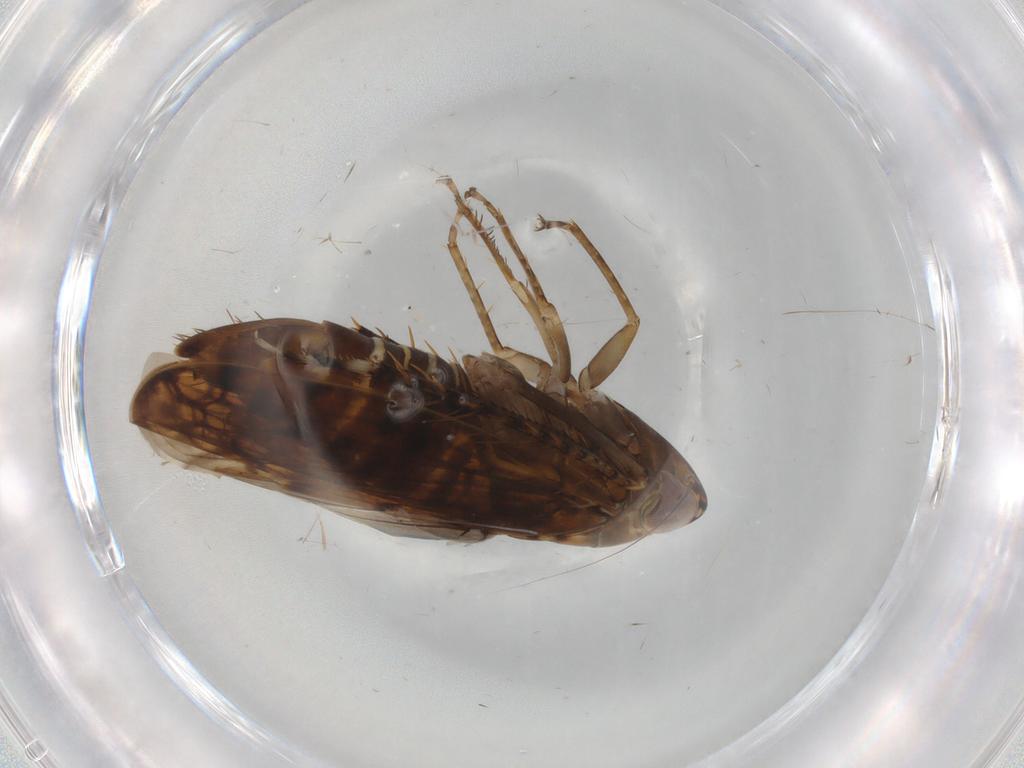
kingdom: Animalia
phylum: Arthropoda
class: Insecta
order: Hemiptera
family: Cicadellidae
